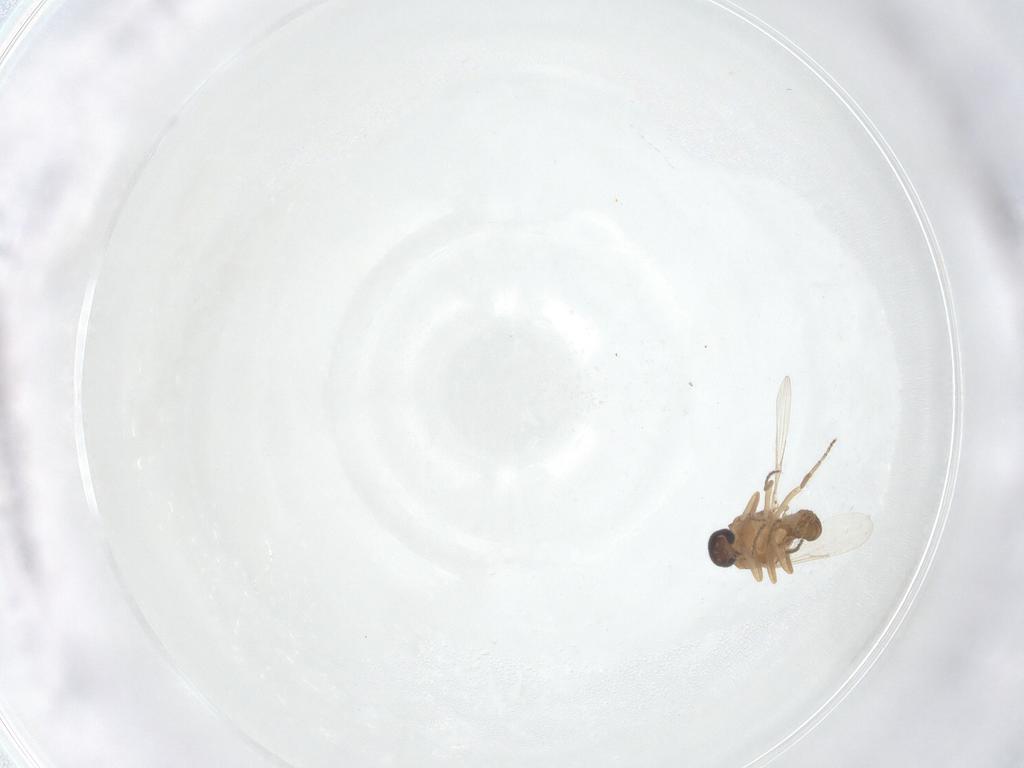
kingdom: Animalia
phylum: Arthropoda
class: Insecta
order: Diptera
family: Ceratopogonidae
